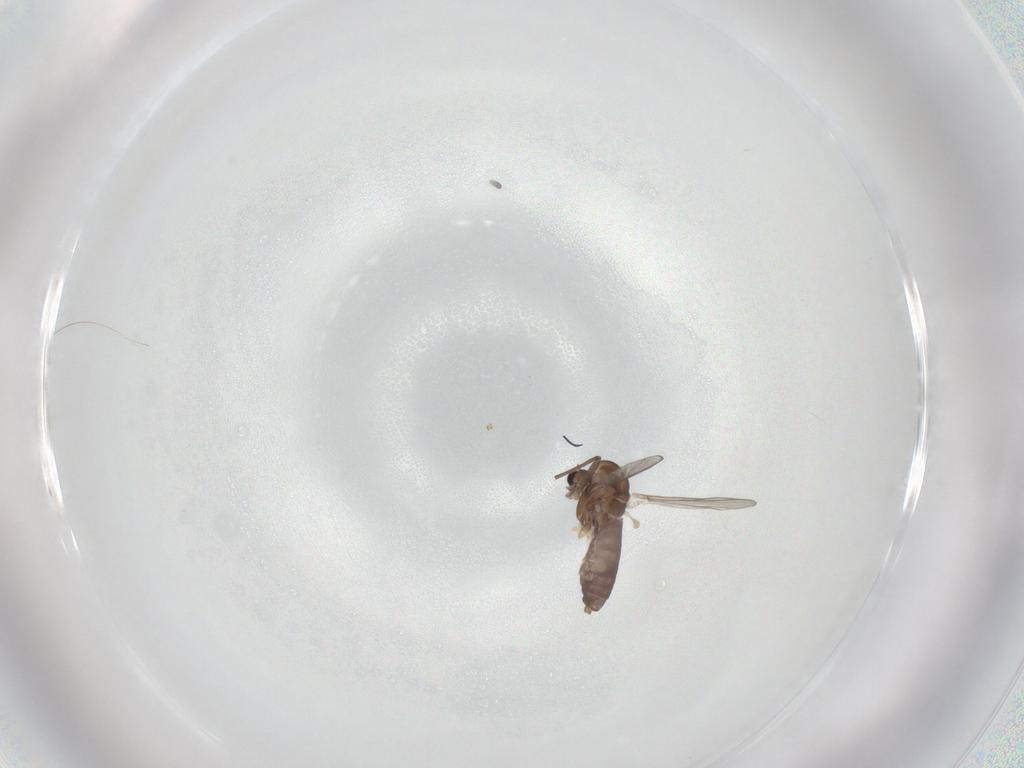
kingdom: Animalia
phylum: Arthropoda
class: Insecta
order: Diptera
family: Chironomidae
